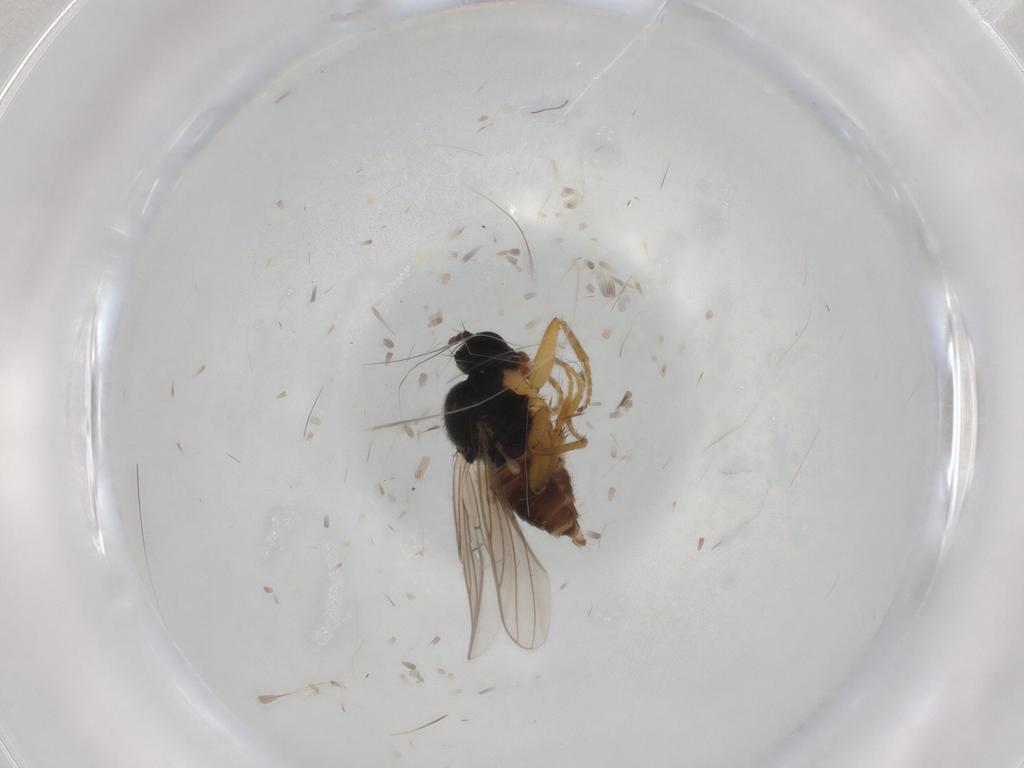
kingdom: Animalia
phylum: Arthropoda
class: Insecta
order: Diptera
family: Hybotidae
